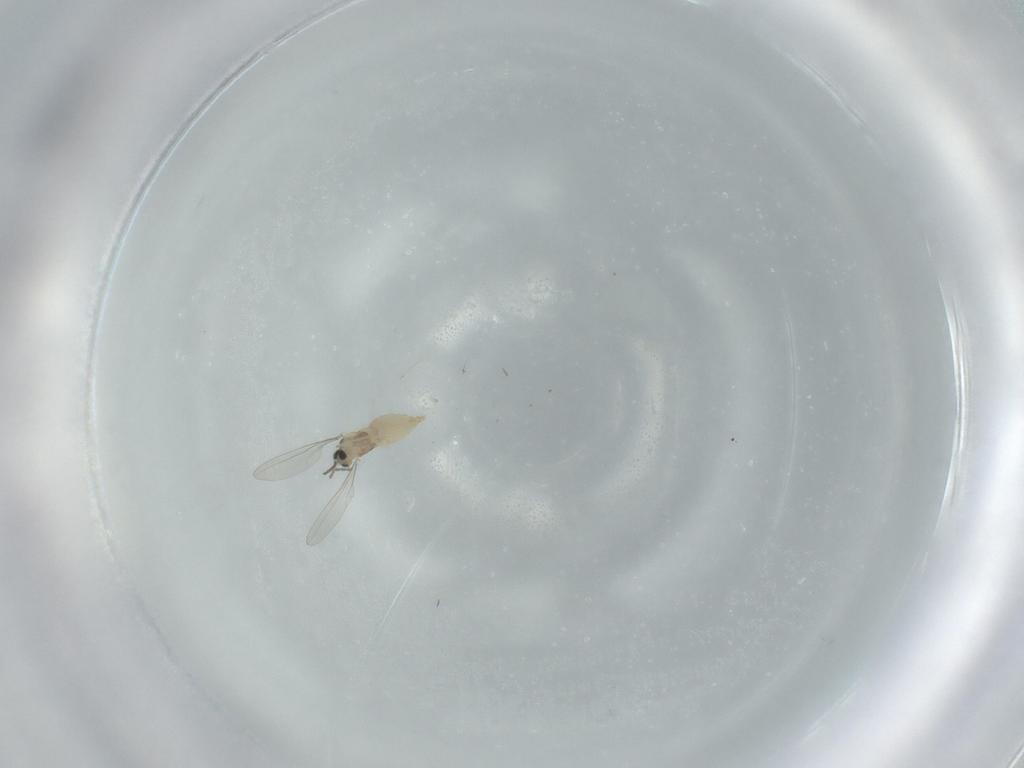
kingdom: Animalia
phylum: Arthropoda
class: Insecta
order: Diptera
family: Cecidomyiidae
